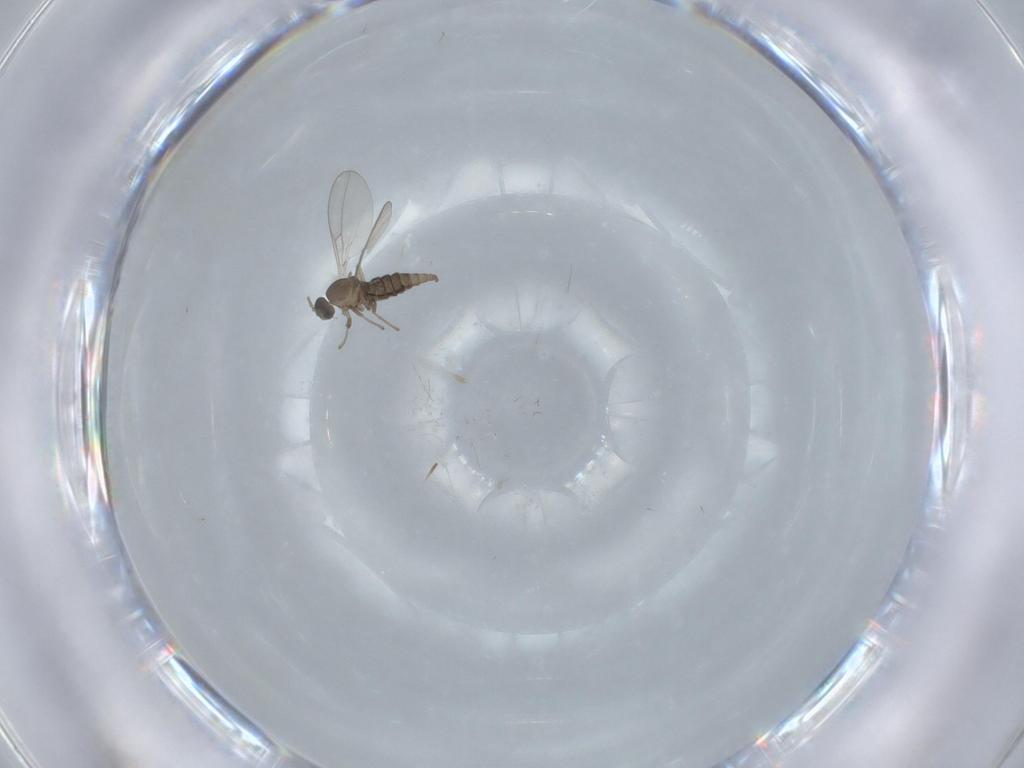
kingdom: Animalia
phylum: Arthropoda
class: Insecta
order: Diptera
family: Cecidomyiidae
